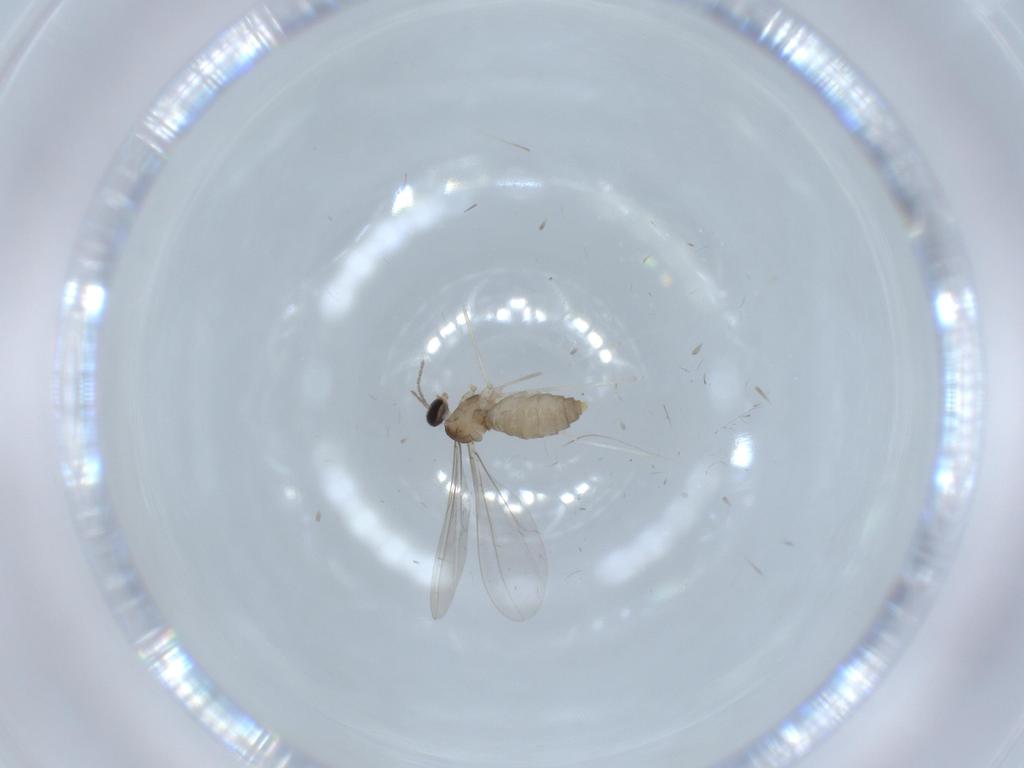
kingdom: Animalia
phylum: Arthropoda
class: Insecta
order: Diptera
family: Cecidomyiidae
